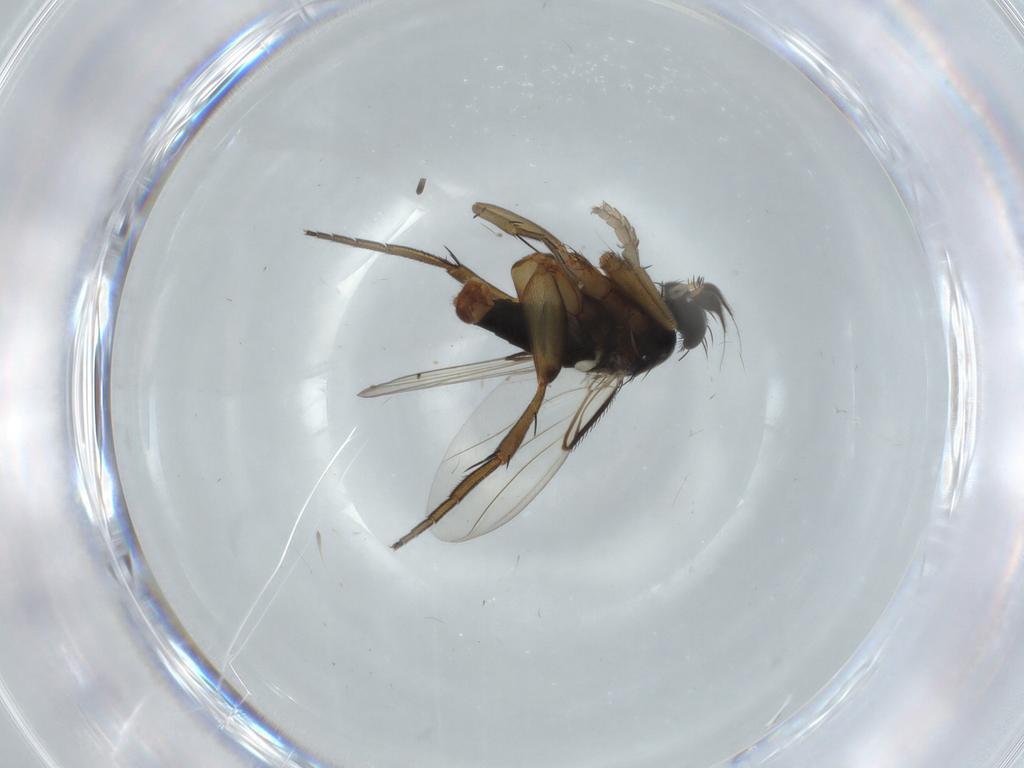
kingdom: Animalia
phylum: Arthropoda
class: Insecta
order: Diptera
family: Phoridae
